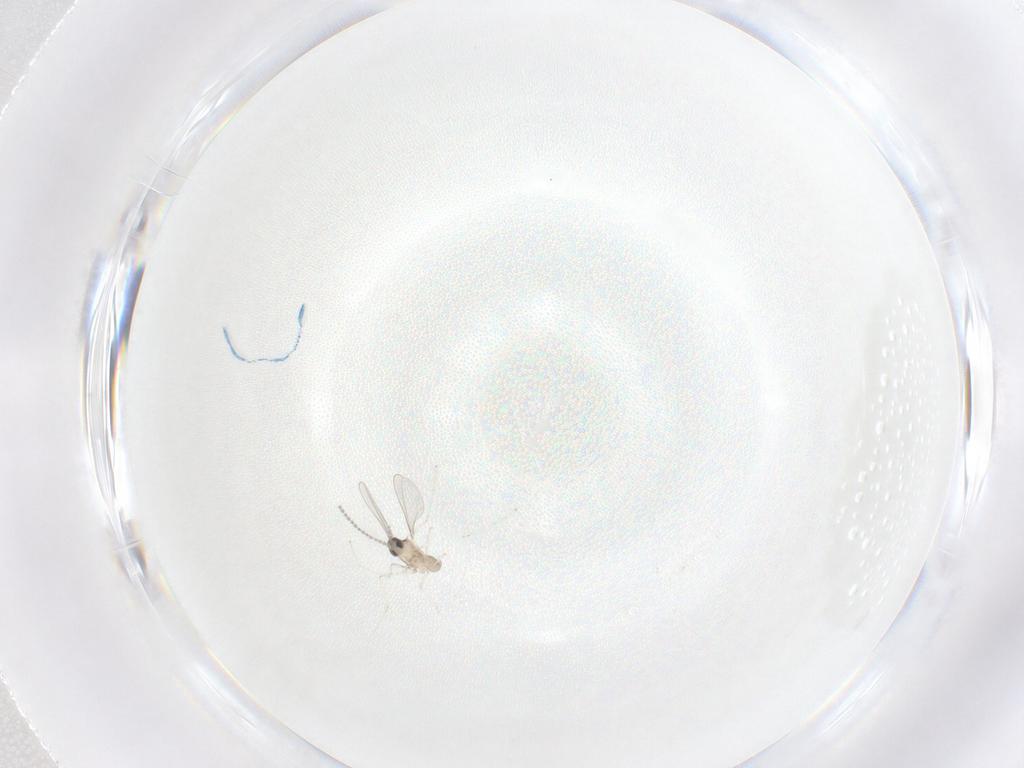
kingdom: Animalia
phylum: Arthropoda
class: Insecta
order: Diptera
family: Cecidomyiidae
